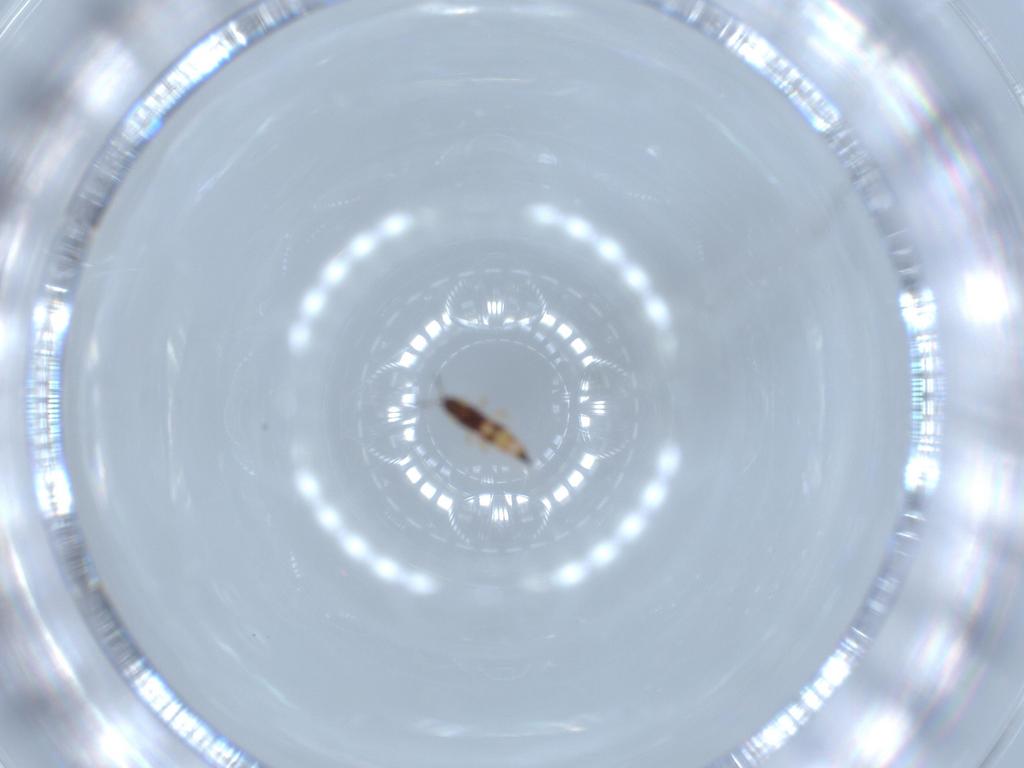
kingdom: Animalia
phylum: Arthropoda
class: Insecta
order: Thysanoptera
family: Phlaeothripidae
